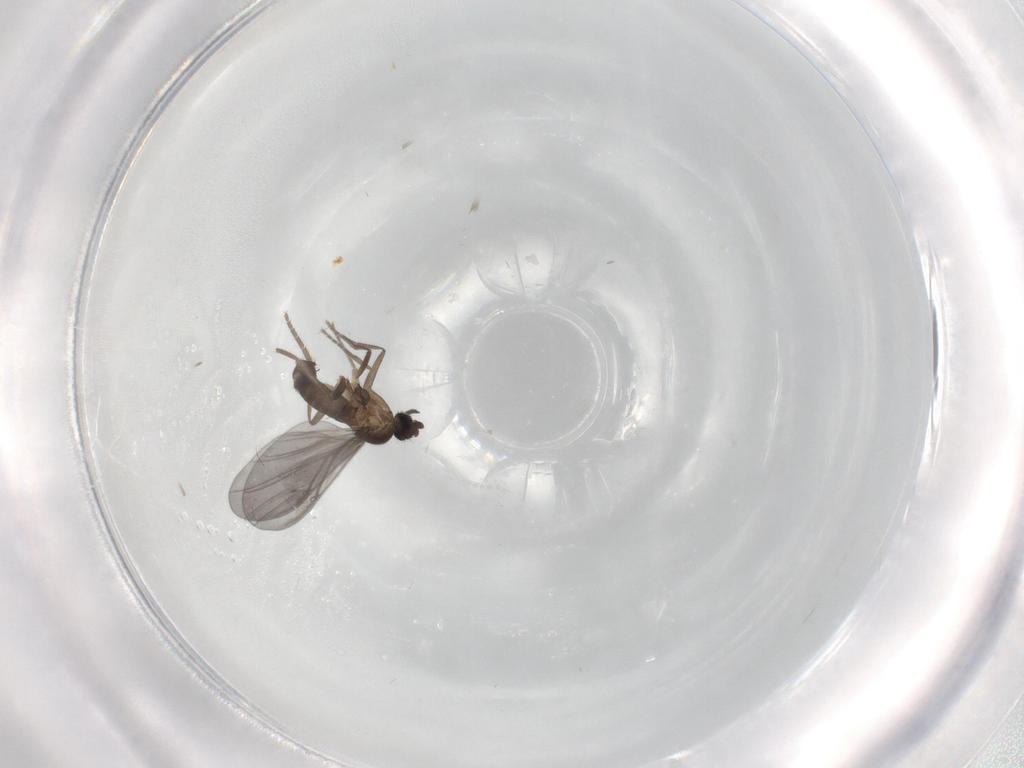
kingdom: Animalia
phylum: Arthropoda
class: Insecta
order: Diptera
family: Phoridae
